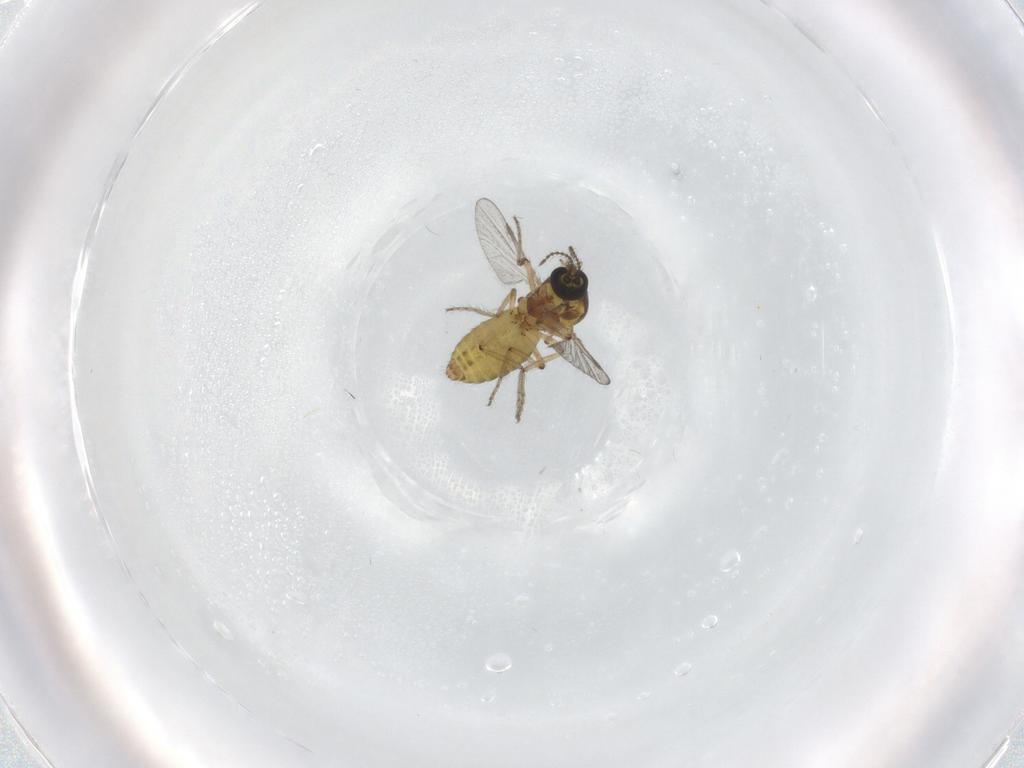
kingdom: Animalia
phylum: Arthropoda
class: Insecta
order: Diptera
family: Ceratopogonidae
